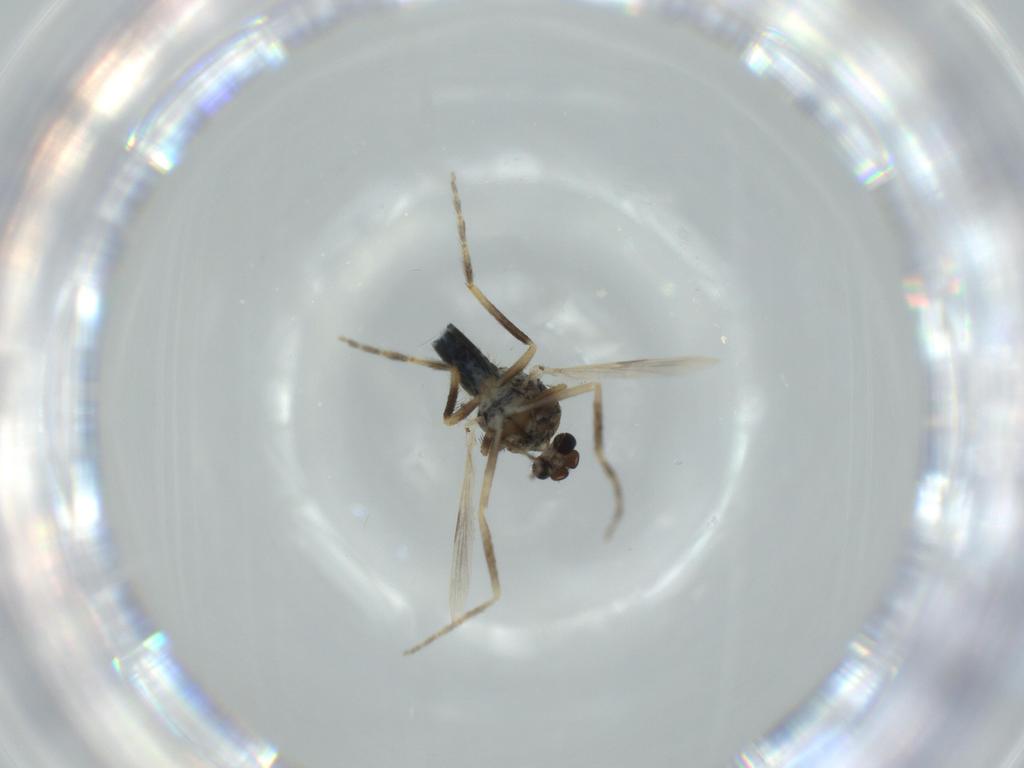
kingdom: Animalia
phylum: Arthropoda
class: Insecta
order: Diptera
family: Ceratopogonidae
